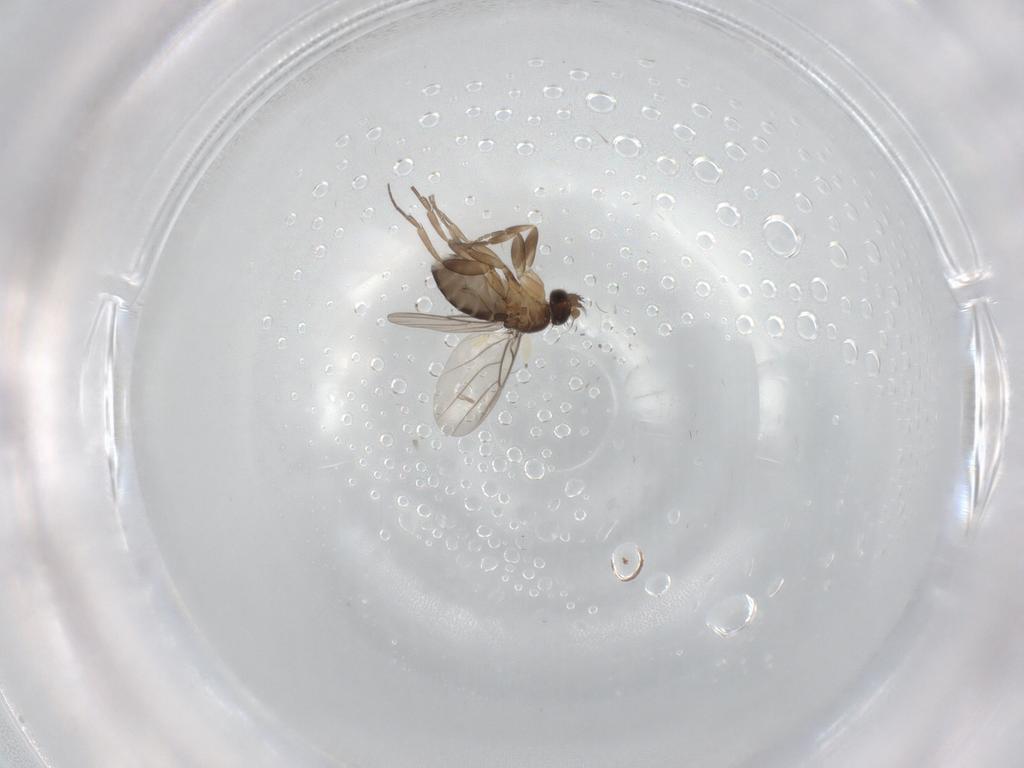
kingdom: Animalia
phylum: Arthropoda
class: Insecta
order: Diptera
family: Phoridae
